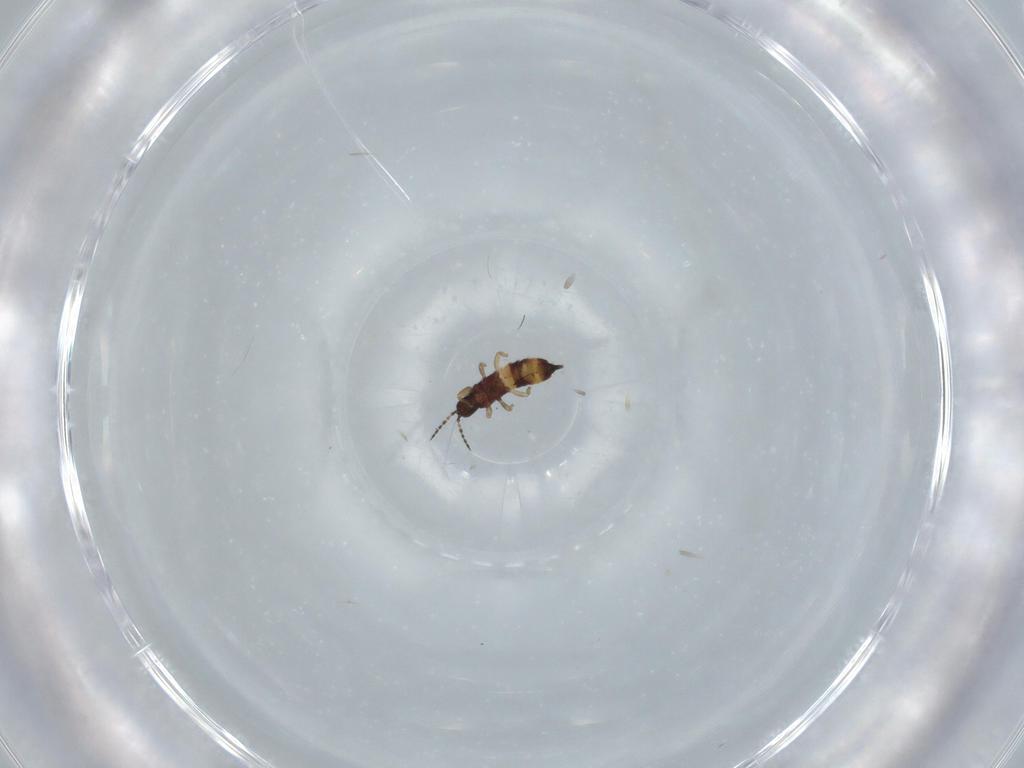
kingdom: Animalia
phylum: Arthropoda
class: Insecta
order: Thysanoptera
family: Phlaeothripidae
